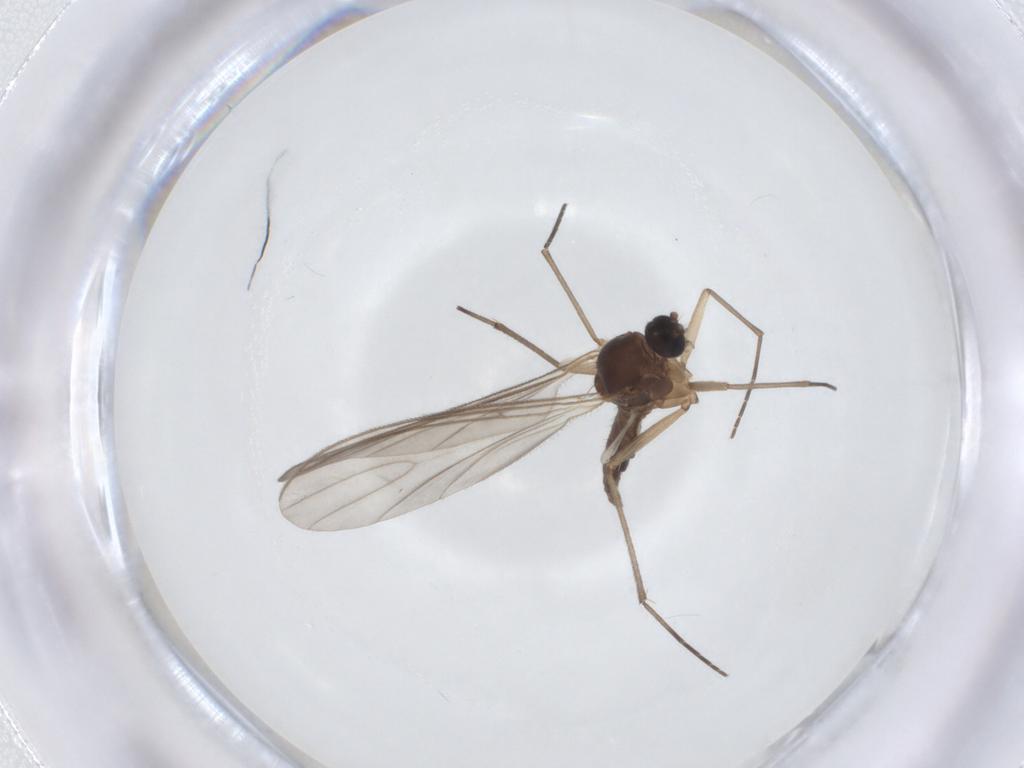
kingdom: Animalia
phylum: Arthropoda
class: Insecta
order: Diptera
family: Sciaridae
